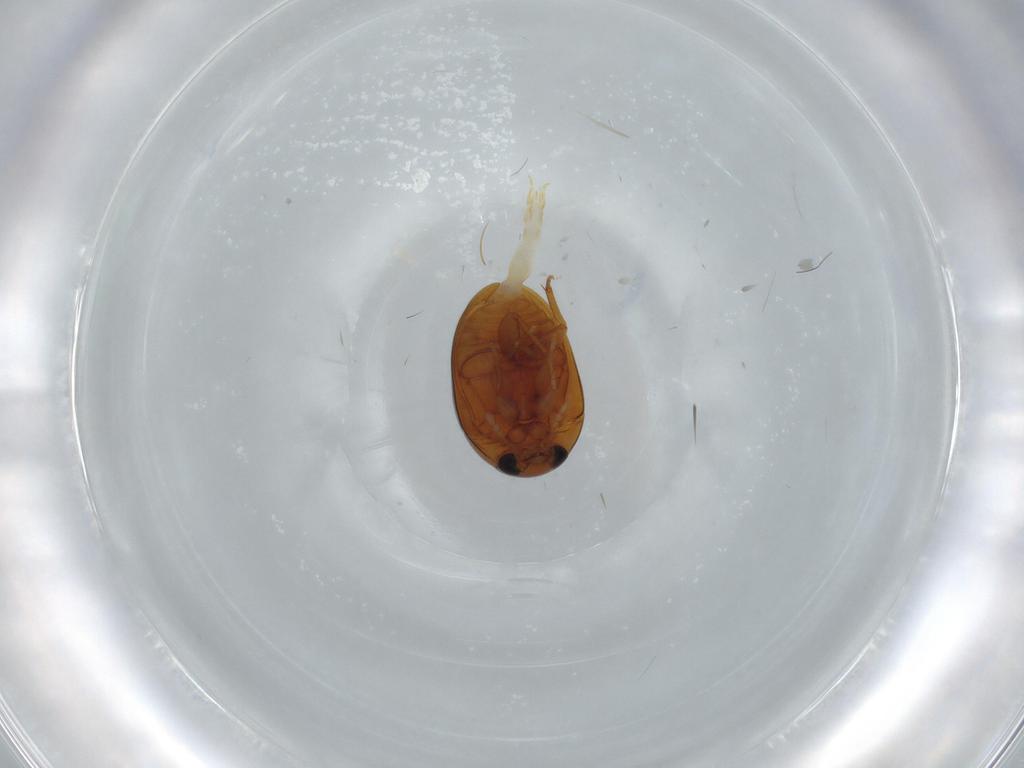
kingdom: Animalia
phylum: Arthropoda
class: Insecta
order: Coleoptera
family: Phalacridae
